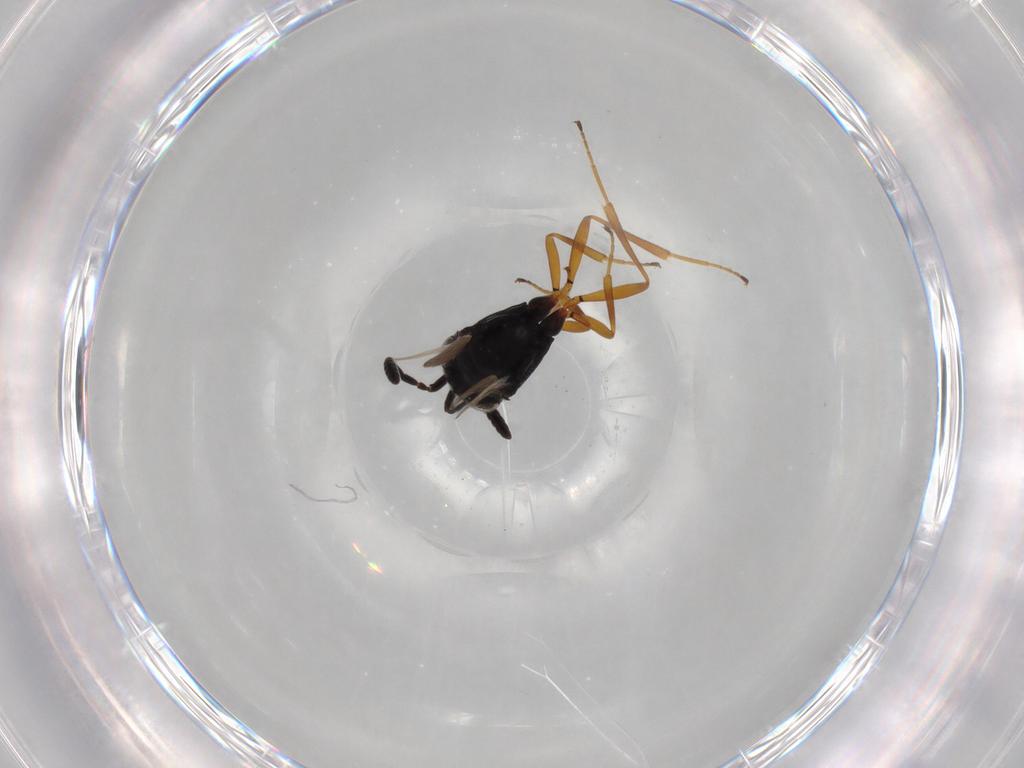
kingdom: Animalia
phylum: Arthropoda
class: Insecta
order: Hymenoptera
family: Scelionidae
